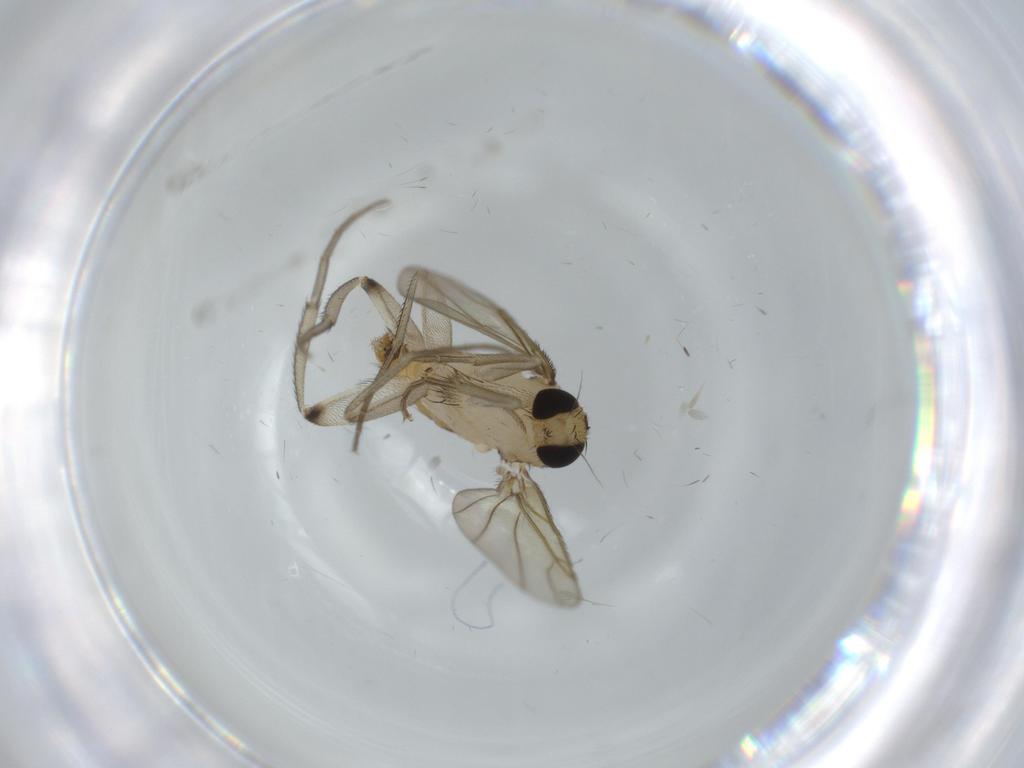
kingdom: Animalia
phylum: Arthropoda
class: Insecta
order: Diptera
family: Cecidomyiidae
